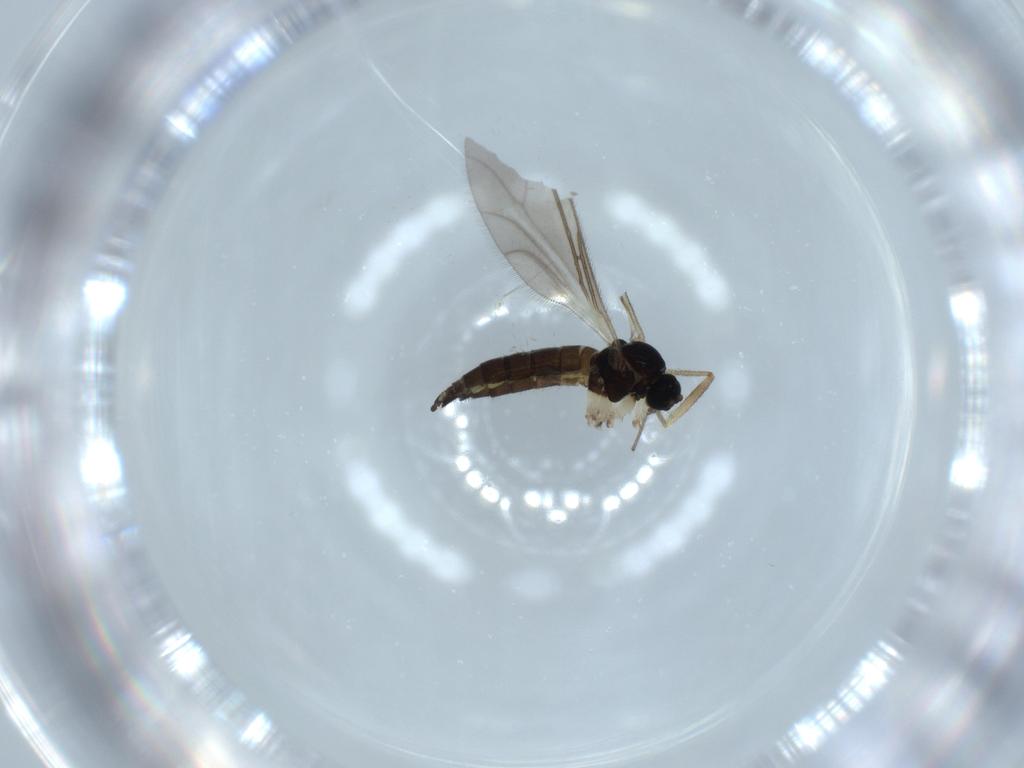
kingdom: Animalia
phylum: Arthropoda
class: Insecta
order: Diptera
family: Sciaridae
